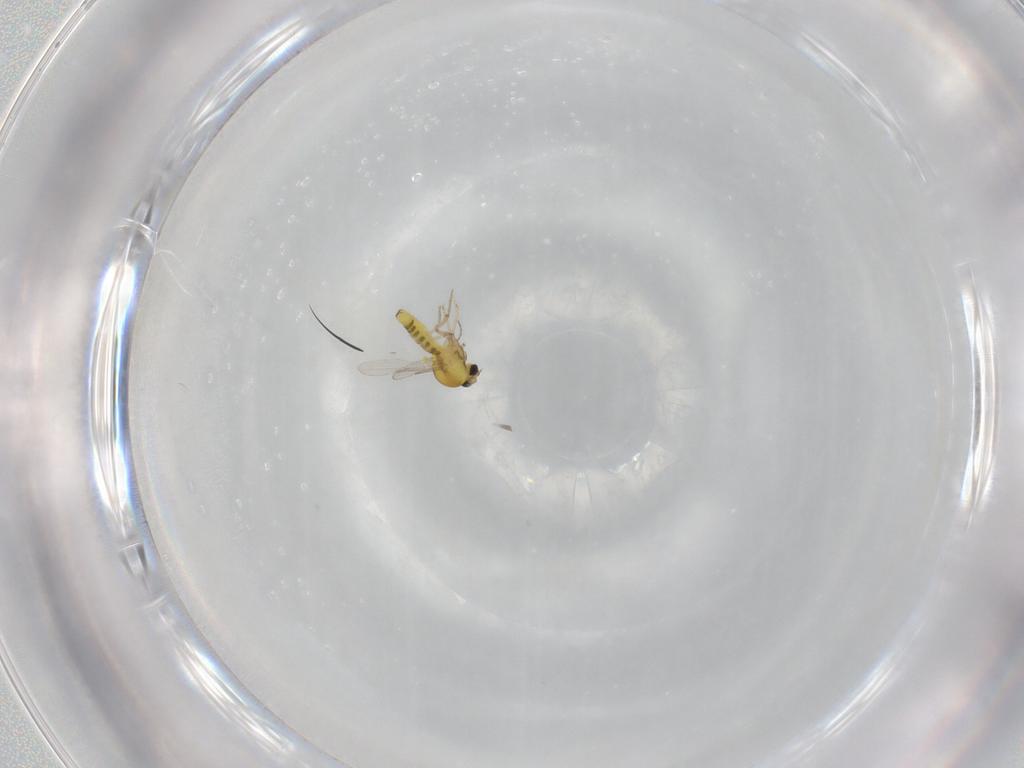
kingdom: Animalia
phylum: Arthropoda
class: Insecta
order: Diptera
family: Ceratopogonidae
